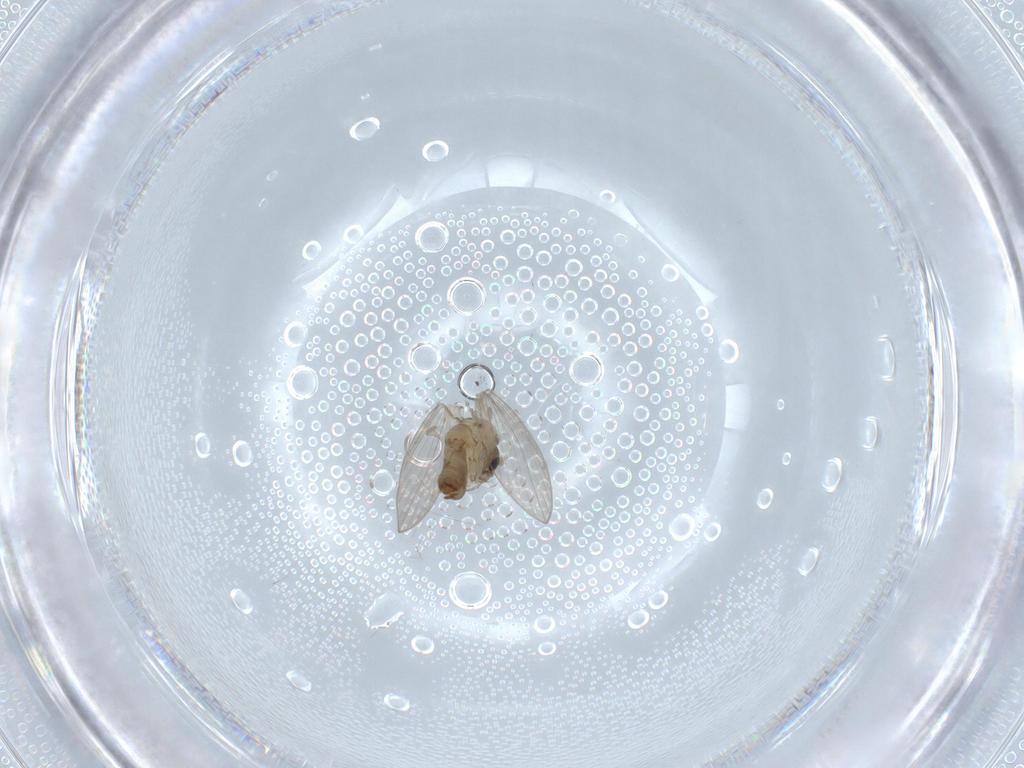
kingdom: Animalia
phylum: Arthropoda
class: Insecta
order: Diptera
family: Psychodidae
